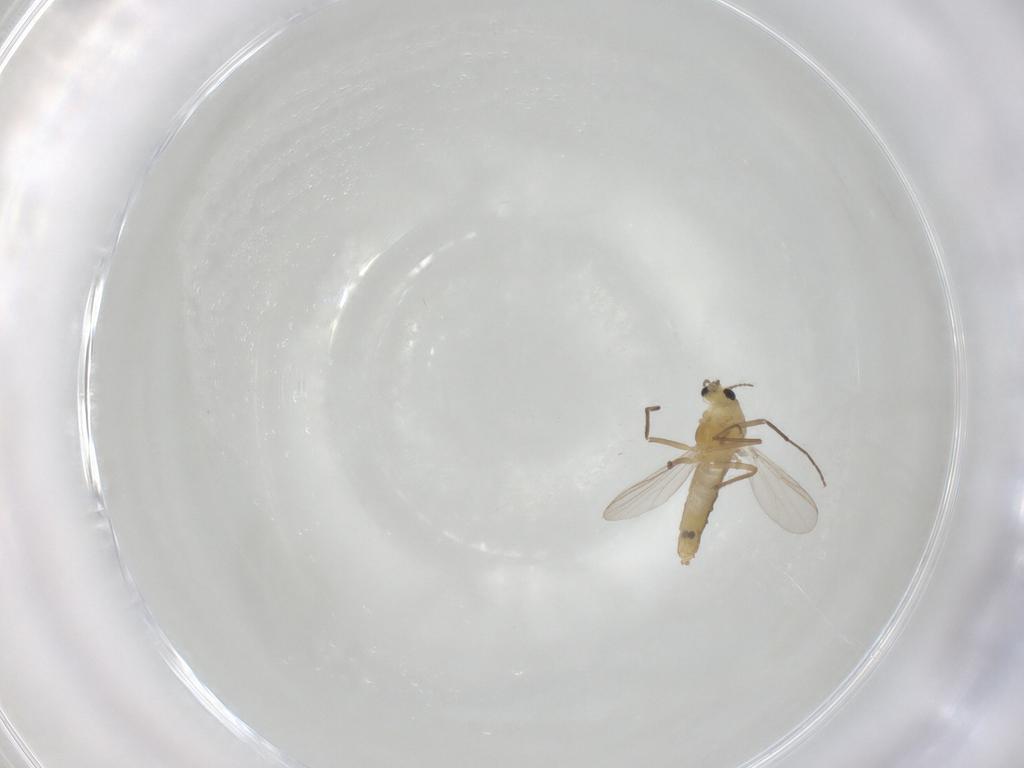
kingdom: Animalia
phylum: Arthropoda
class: Insecta
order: Diptera
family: Chironomidae
